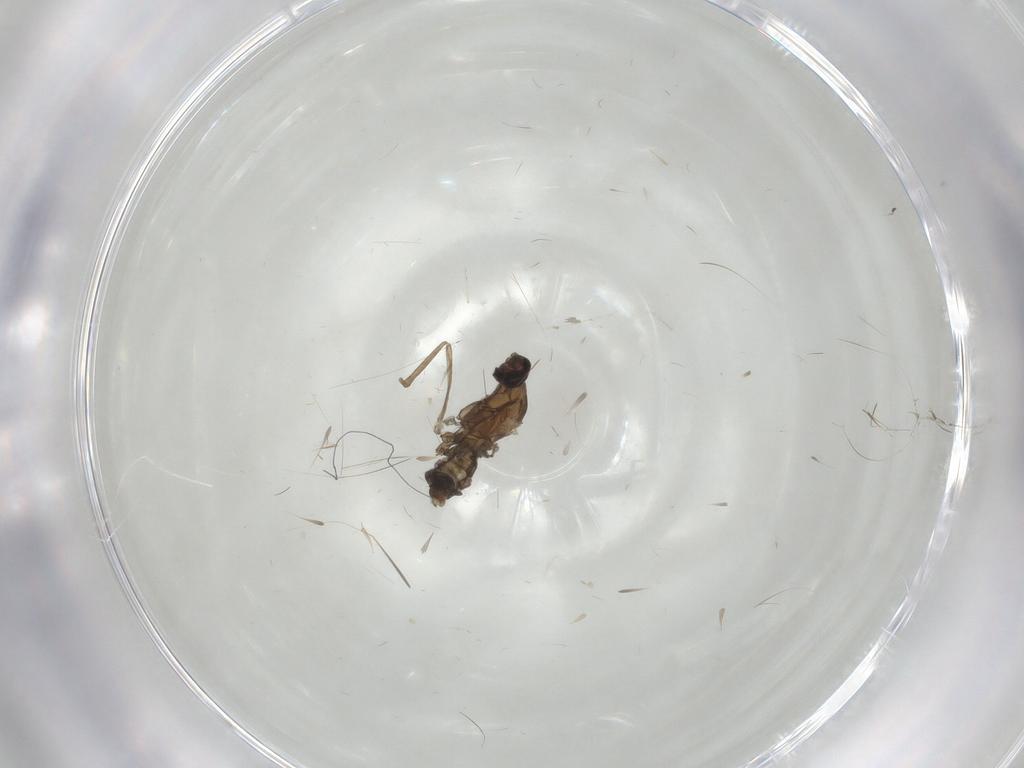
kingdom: Animalia
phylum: Arthropoda
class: Insecta
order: Diptera
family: Chironomidae
